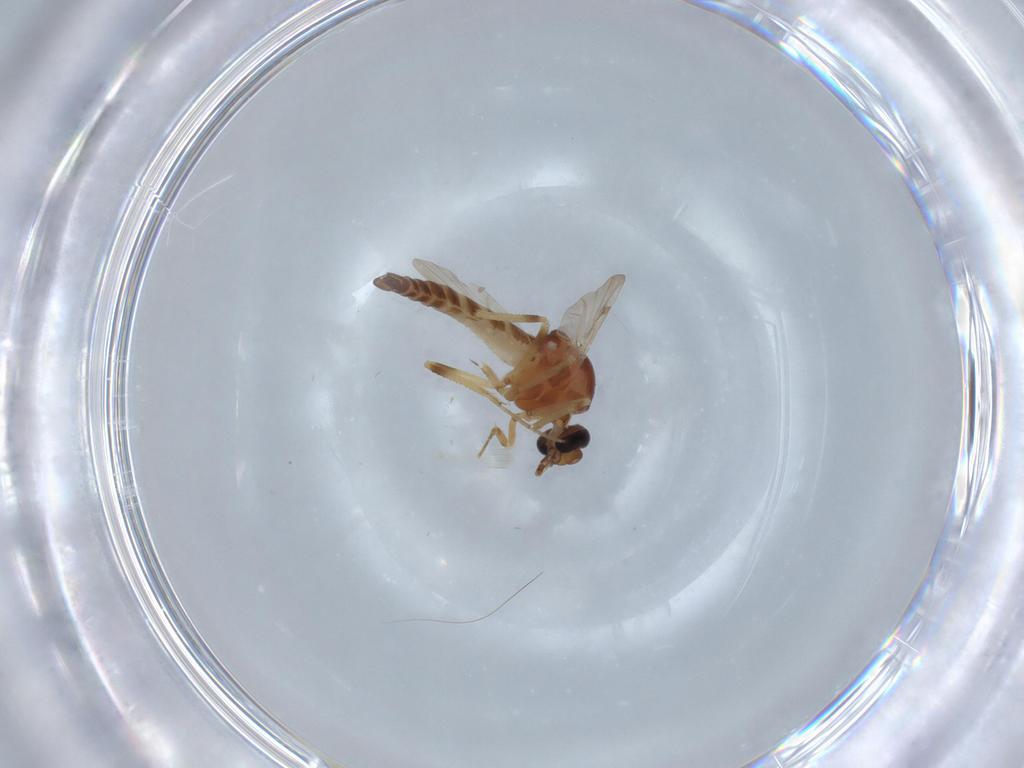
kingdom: Animalia
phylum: Arthropoda
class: Insecta
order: Diptera
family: Ceratopogonidae
